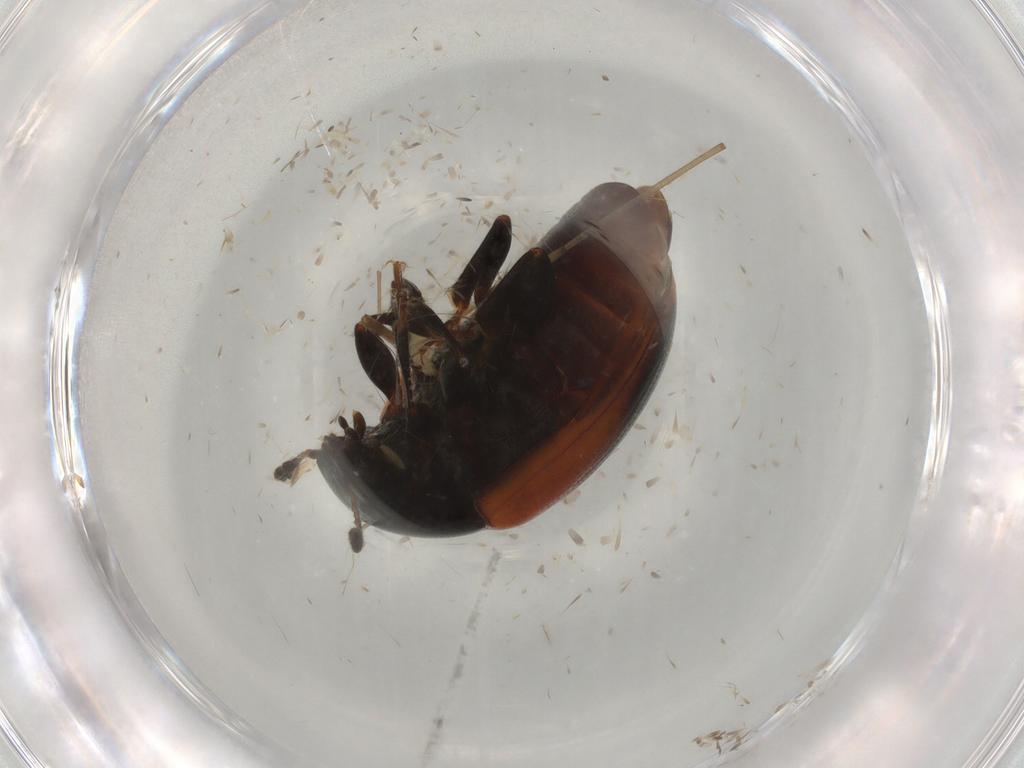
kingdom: Animalia
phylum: Arthropoda
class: Insecta
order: Coleoptera
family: Erotylidae
